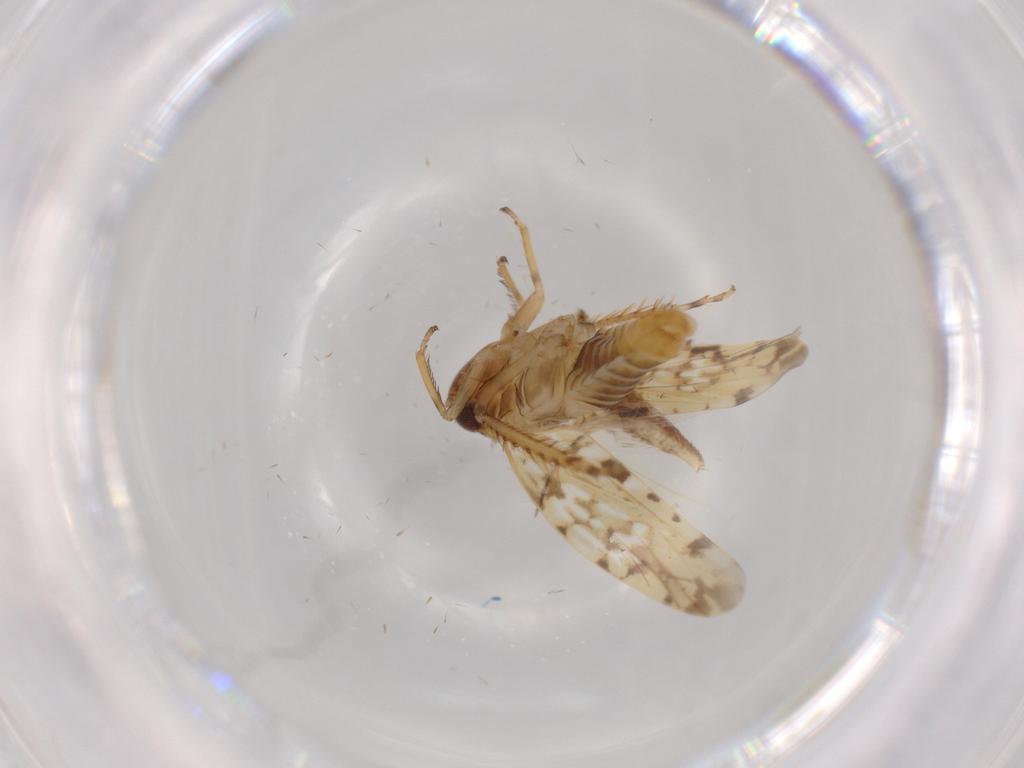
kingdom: Animalia
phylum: Arthropoda
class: Insecta
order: Hemiptera
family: Cicadellidae
